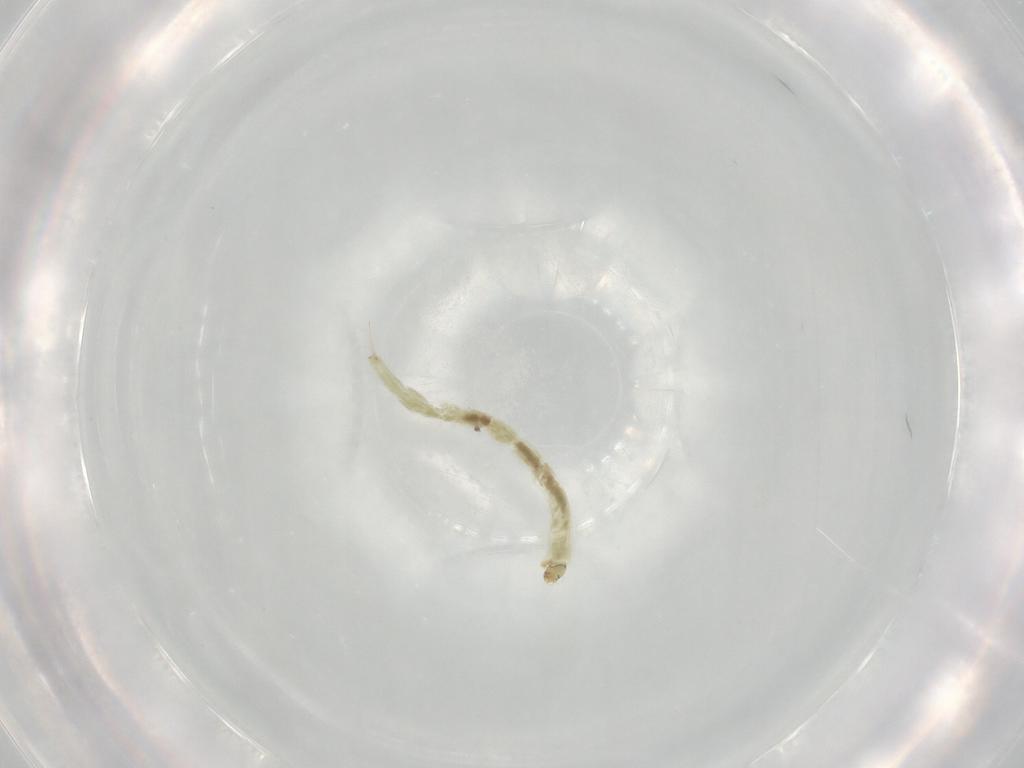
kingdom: Animalia
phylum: Arthropoda
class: Insecta
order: Diptera
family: Chironomidae
